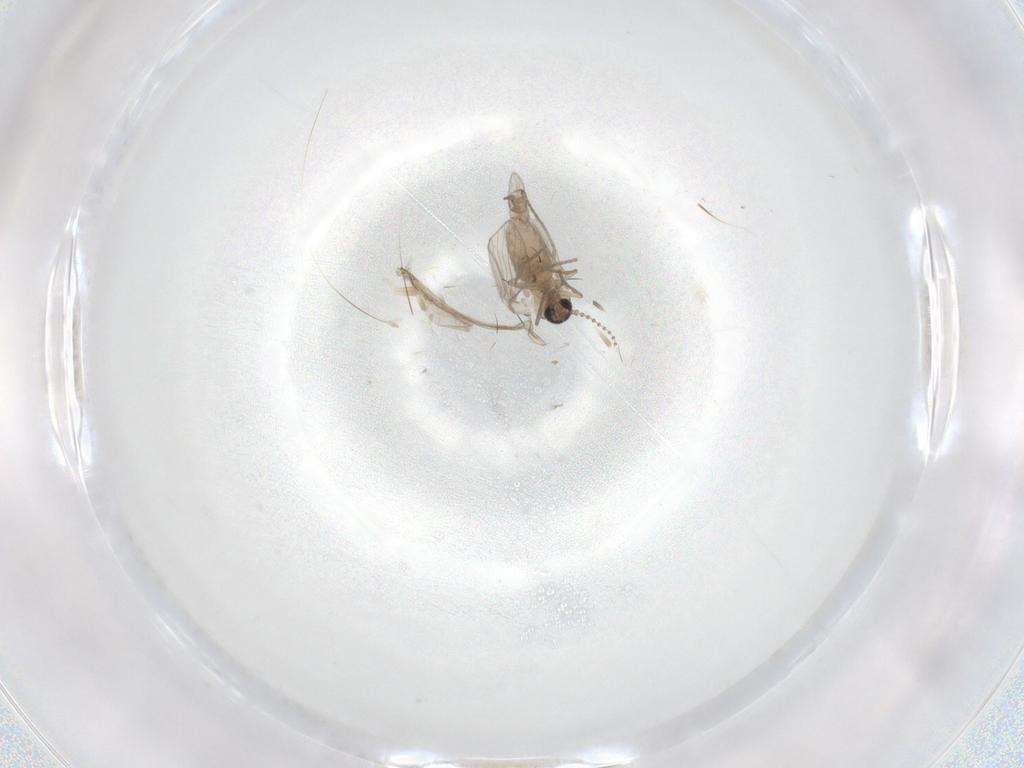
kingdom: Animalia
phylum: Arthropoda
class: Insecta
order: Diptera
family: Psychodidae
